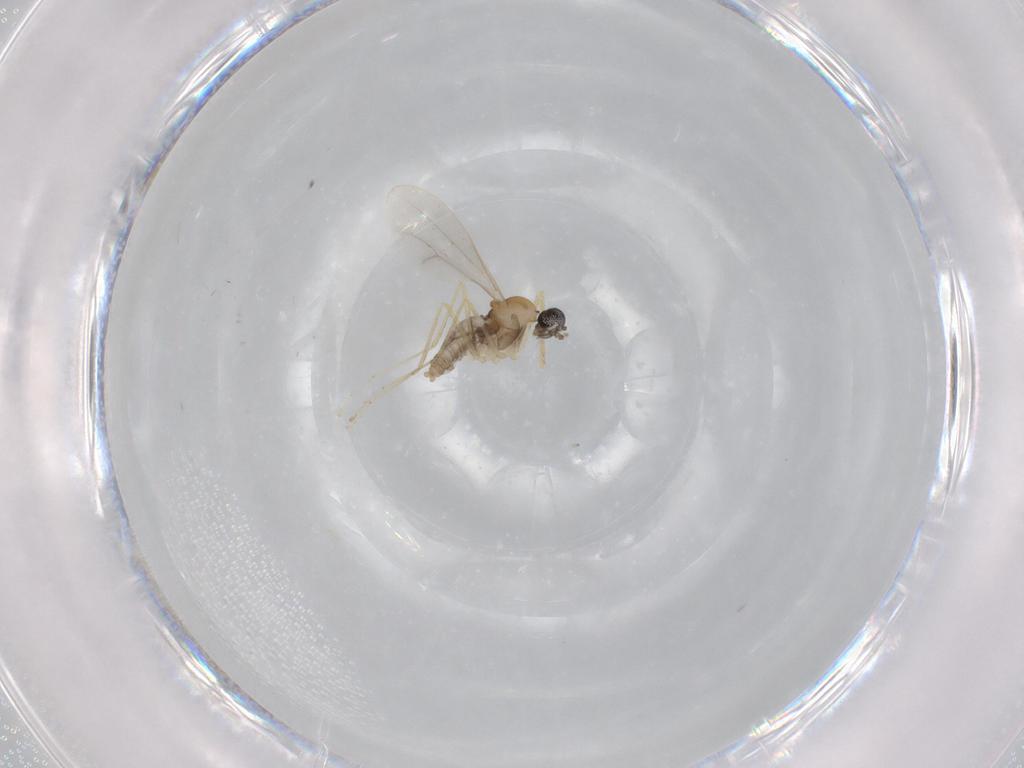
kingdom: Animalia
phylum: Arthropoda
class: Insecta
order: Diptera
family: Cecidomyiidae
